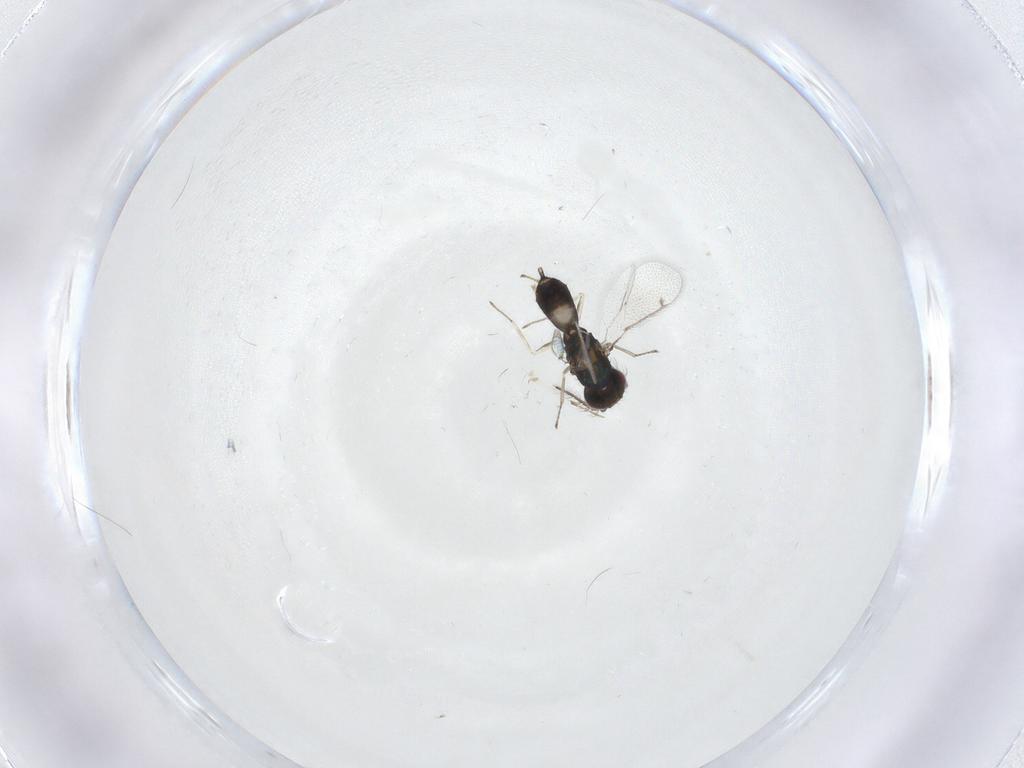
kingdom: Animalia
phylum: Arthropoda
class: Insecta
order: Hymenoptera
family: Eulophidae
